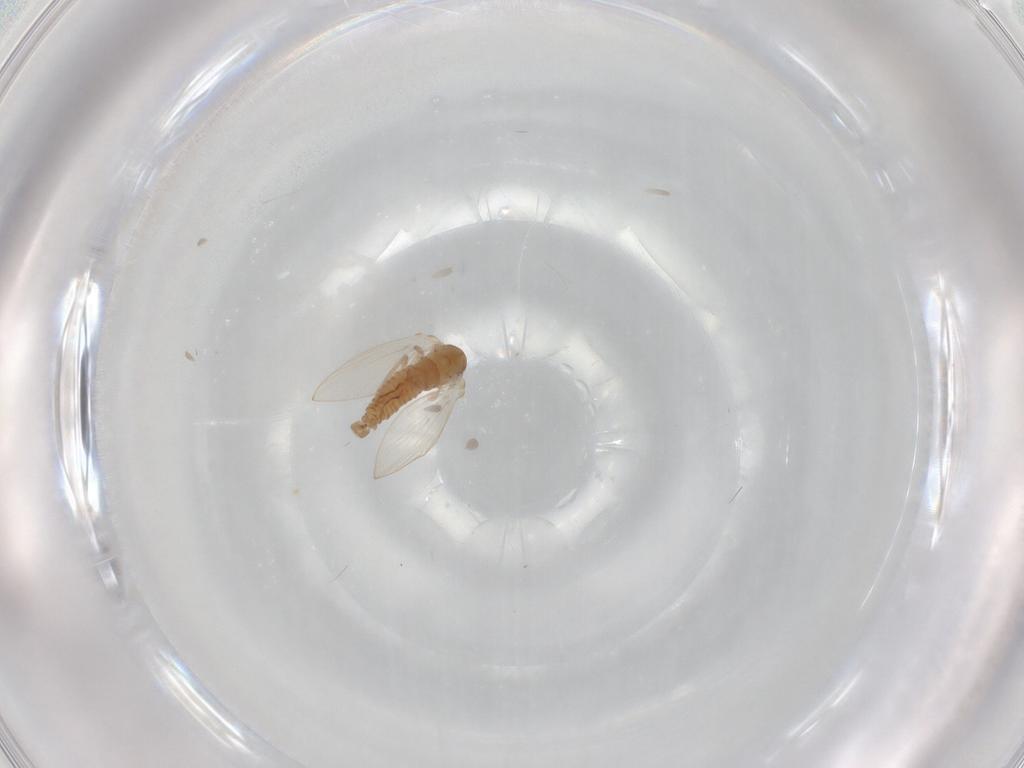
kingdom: Animalia
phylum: Arthropoda
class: Insecta
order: Diptera
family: Psychodidae
